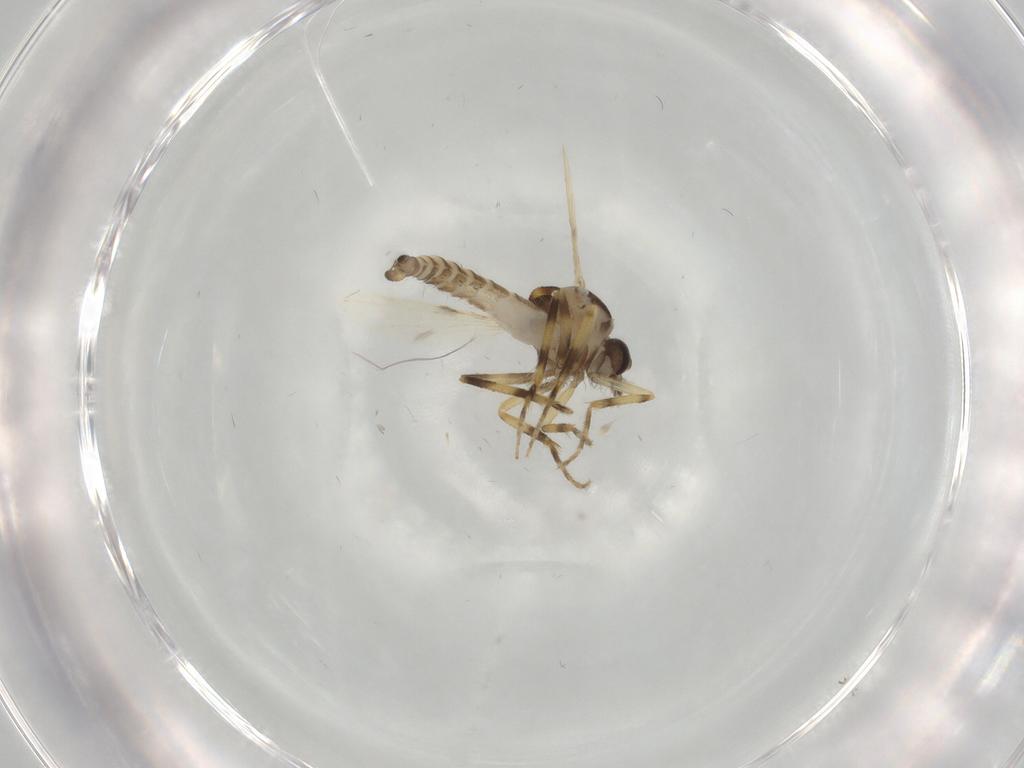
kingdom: Animalia
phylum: Arthropoda
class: Insecta
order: Diptera
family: Ceratopogonidae
